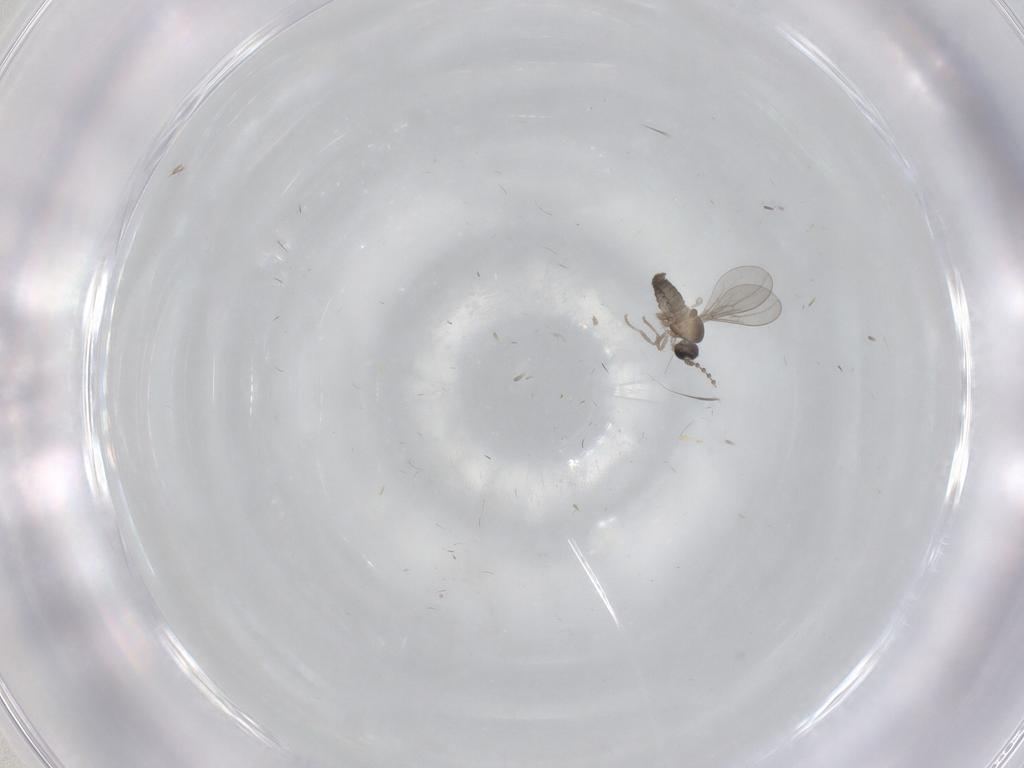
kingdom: Animalia
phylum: Arthropoda
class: Insecta
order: Diptera
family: Cecidomyiidae
